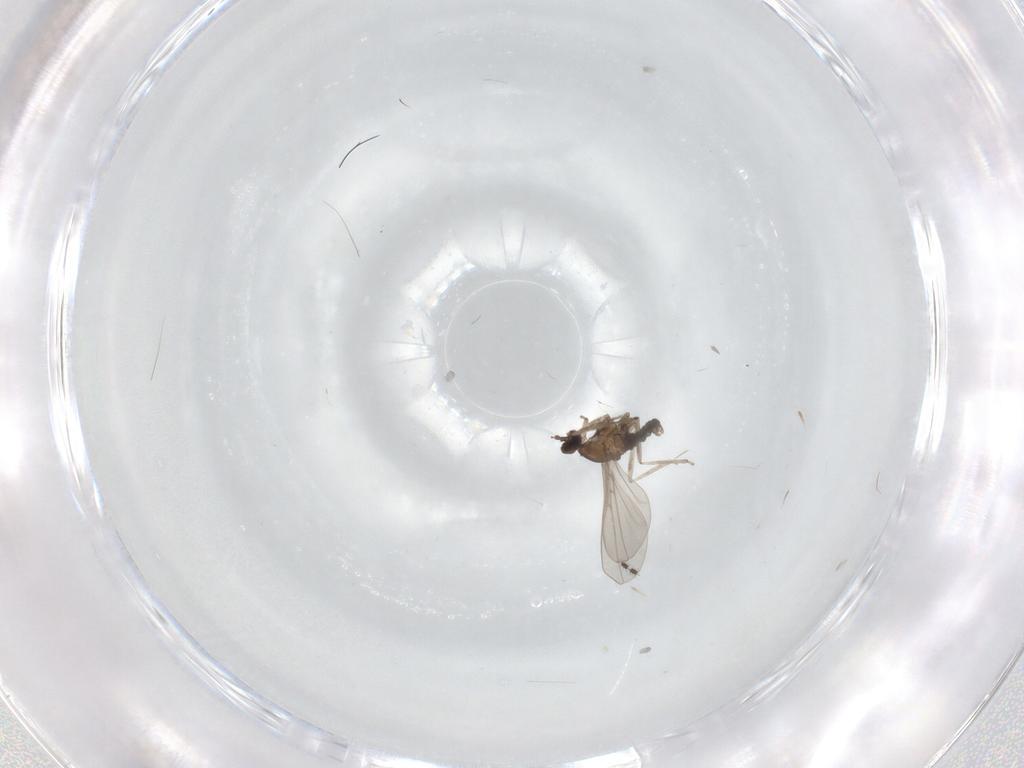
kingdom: Animalia
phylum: Arthropoda
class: Insecta
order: Diptera
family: Cecidomyiidae
